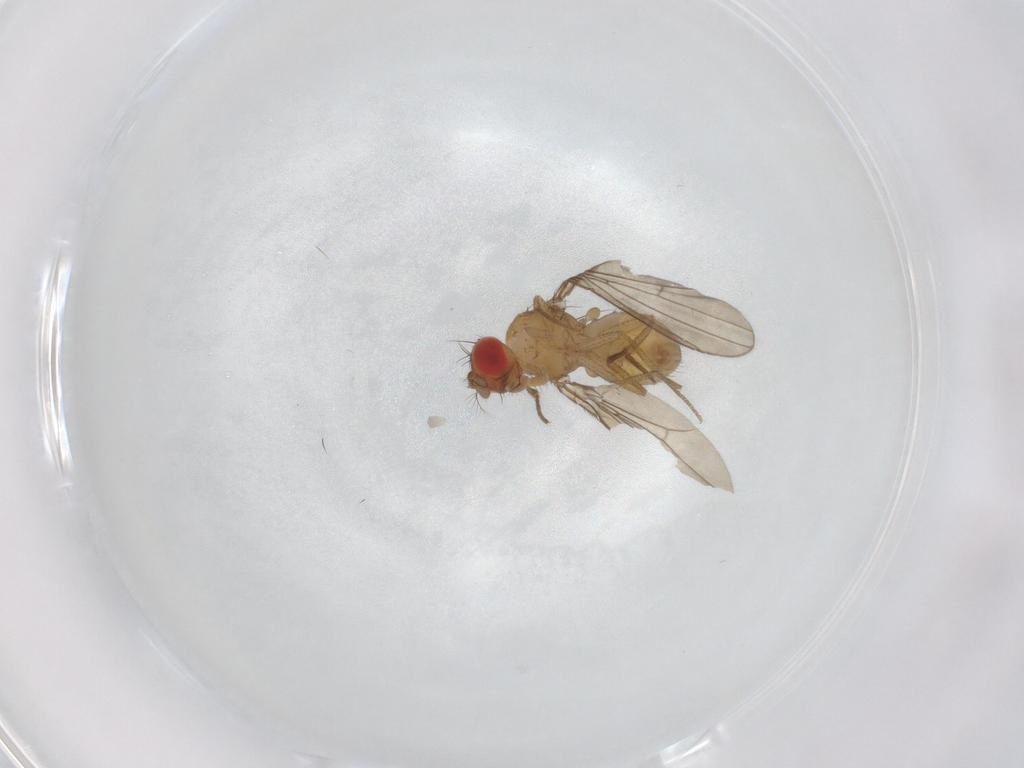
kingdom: Animalia
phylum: Arthropoda
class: Insecta
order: Diptera
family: Drosophilidae
